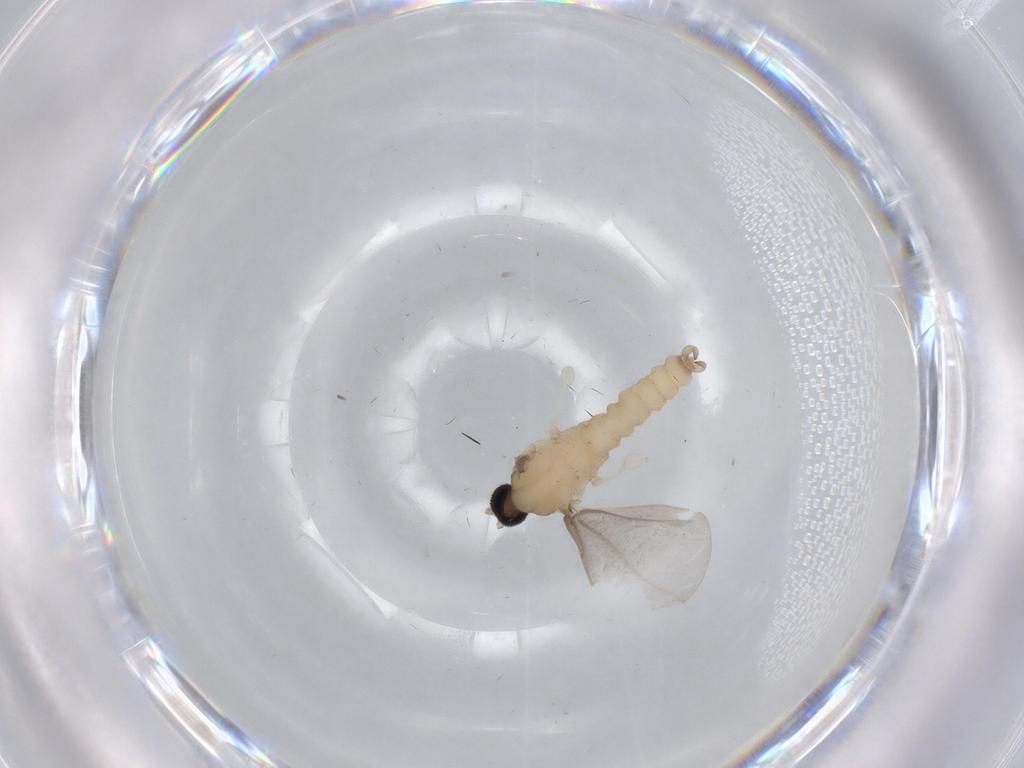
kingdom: Animalia
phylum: Arthropoda
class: Insecta
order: Diptera
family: Cecidomyiidae
